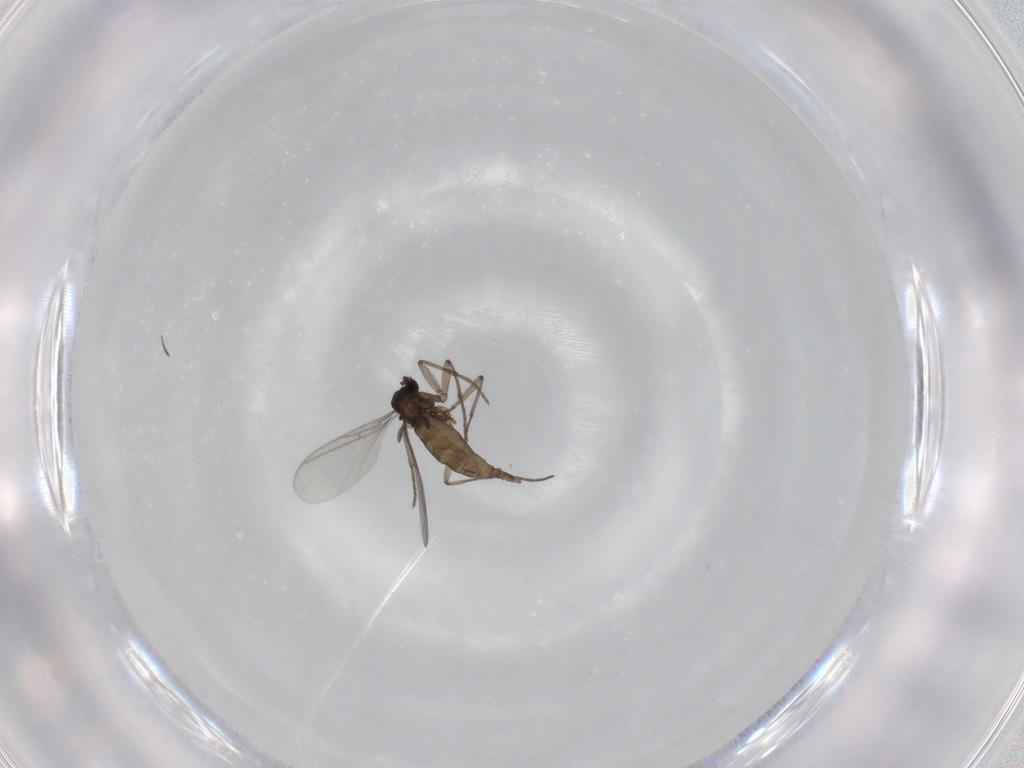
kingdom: Animalia
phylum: Arthropoda
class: Insecta
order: Diptera
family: Sciaridae
